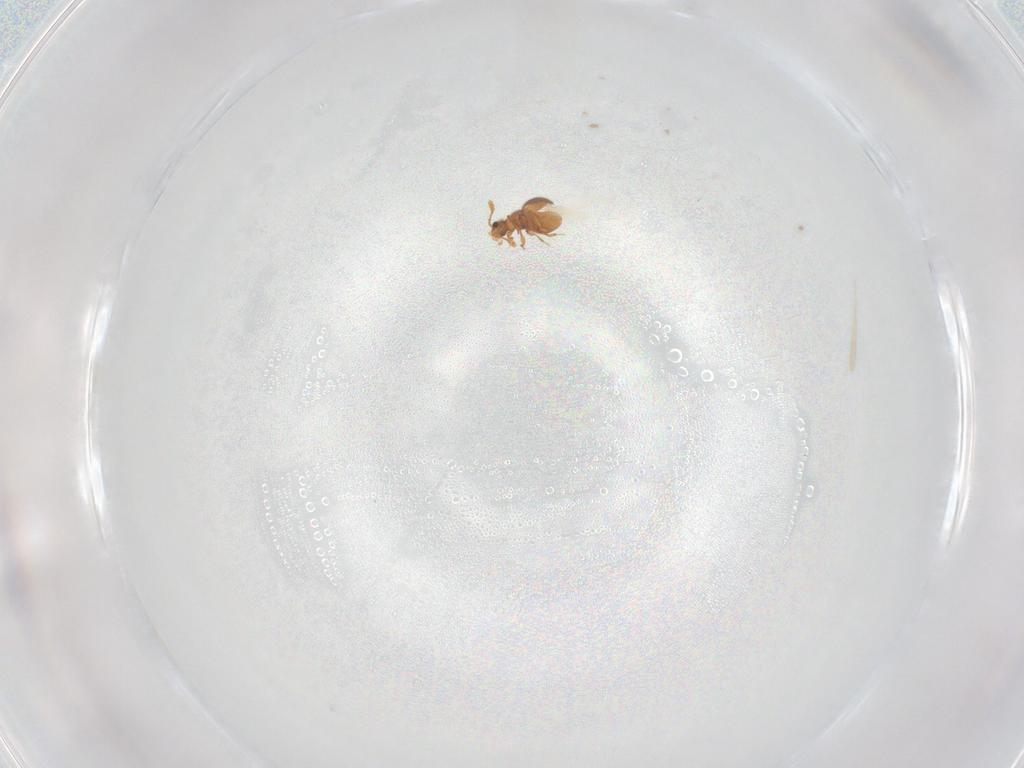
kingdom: Animalia
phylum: Arthropoda
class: Insecta
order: Coleoptera
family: Staphylinidae
